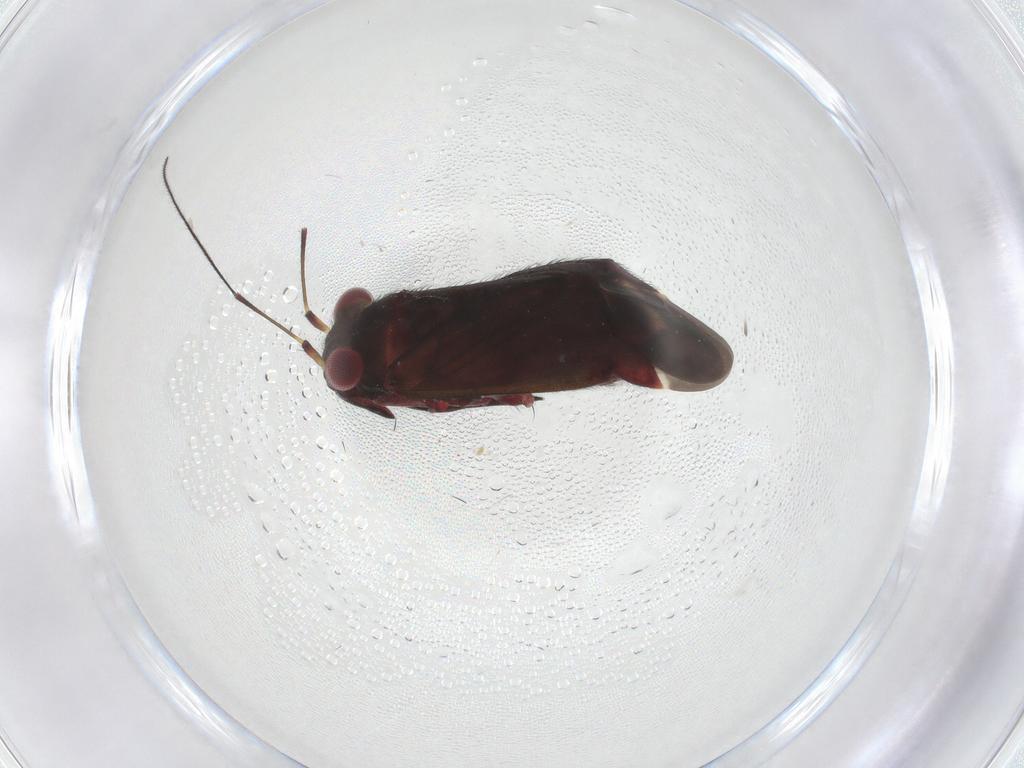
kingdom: Animalia
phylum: Arthropoda
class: Insecta
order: Hemiptera
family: Miridae
